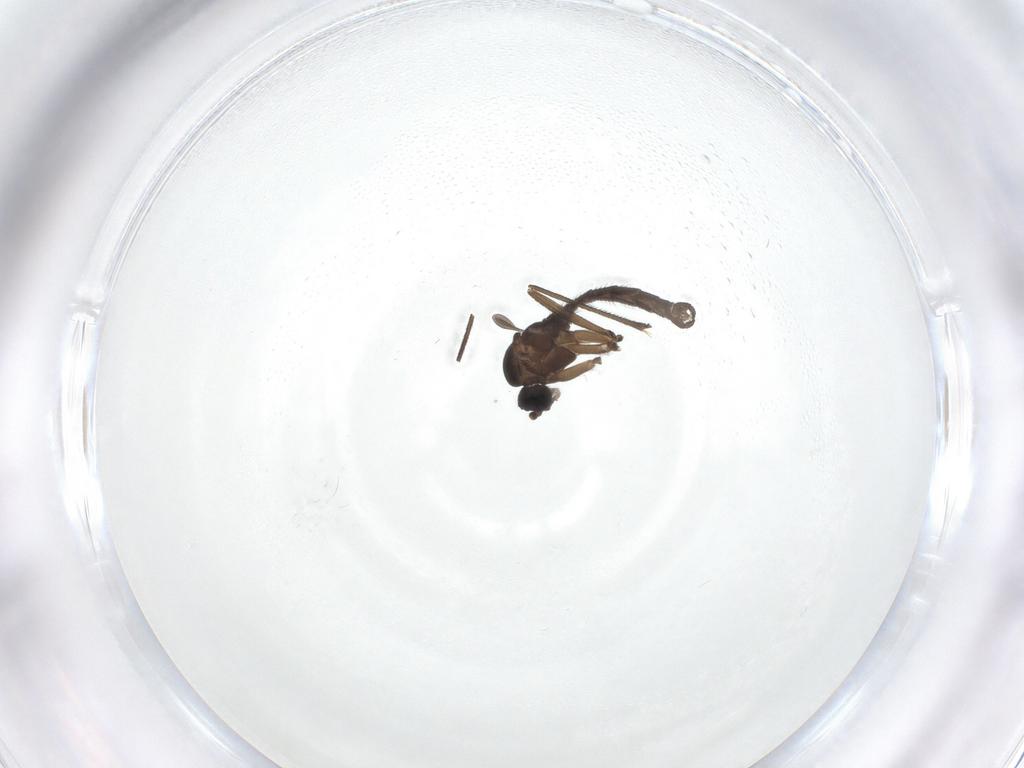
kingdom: Animalia
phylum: Arthropoda
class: Insecta
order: Diptera
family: Sciaridae
